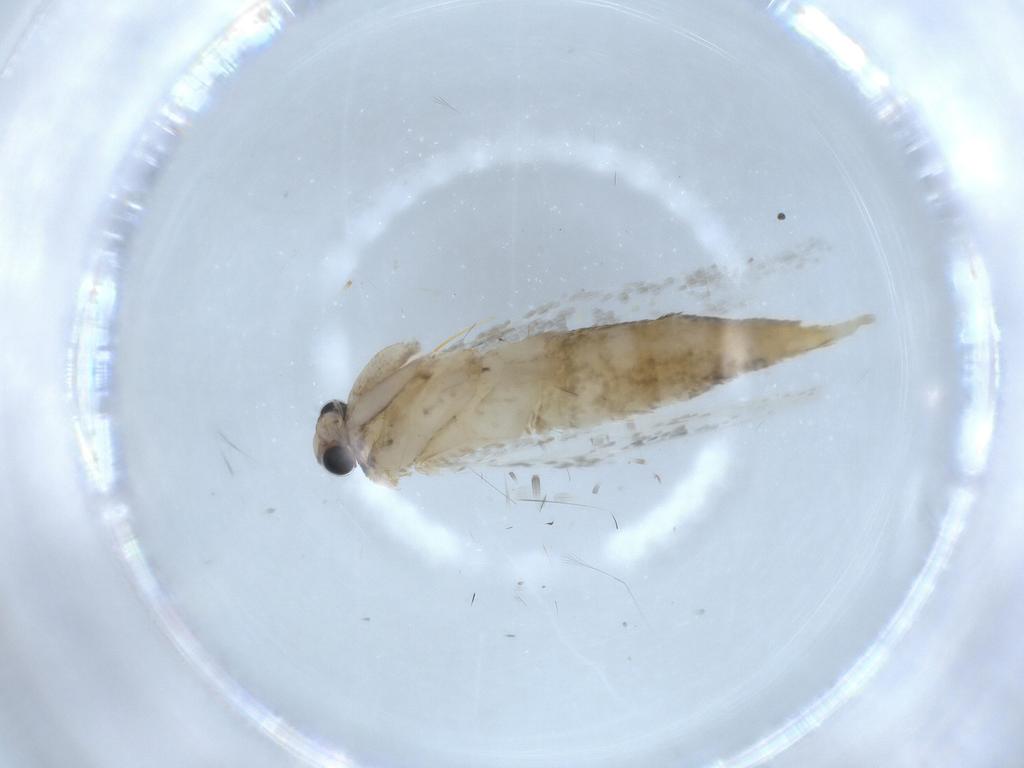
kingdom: Animalia
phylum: Arthropoda
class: Insecta
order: Lepidoptera
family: Meessiidae
